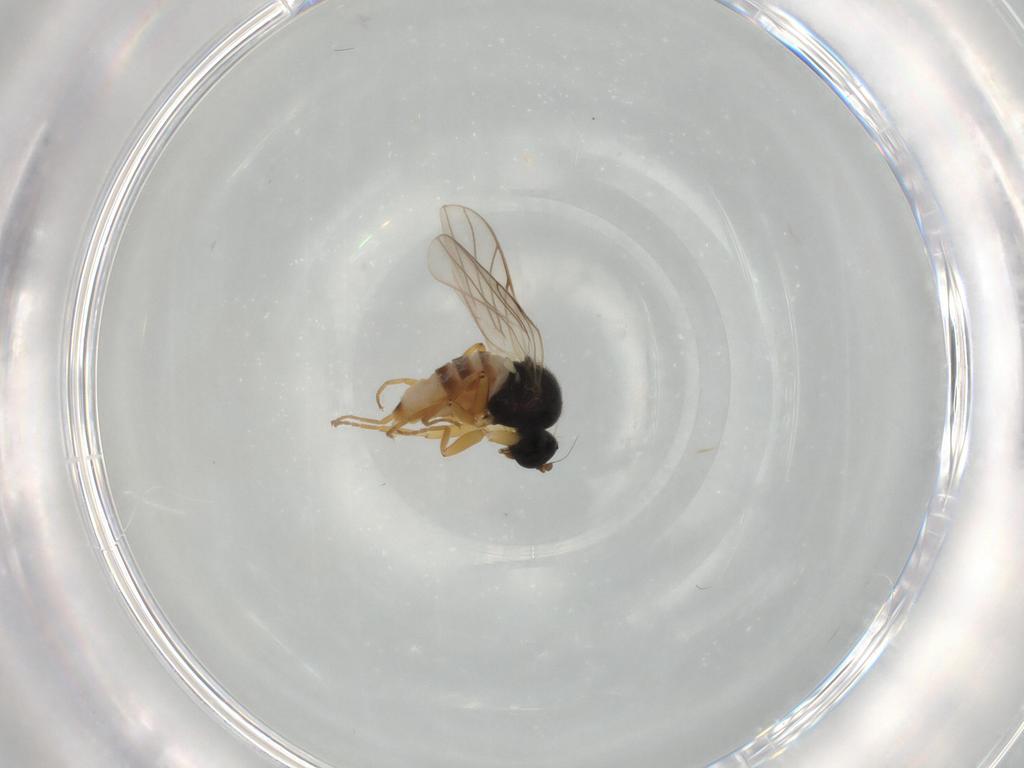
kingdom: Animalia
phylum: Arthropoda
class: Insecta
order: Diptera
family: Hybotidae
